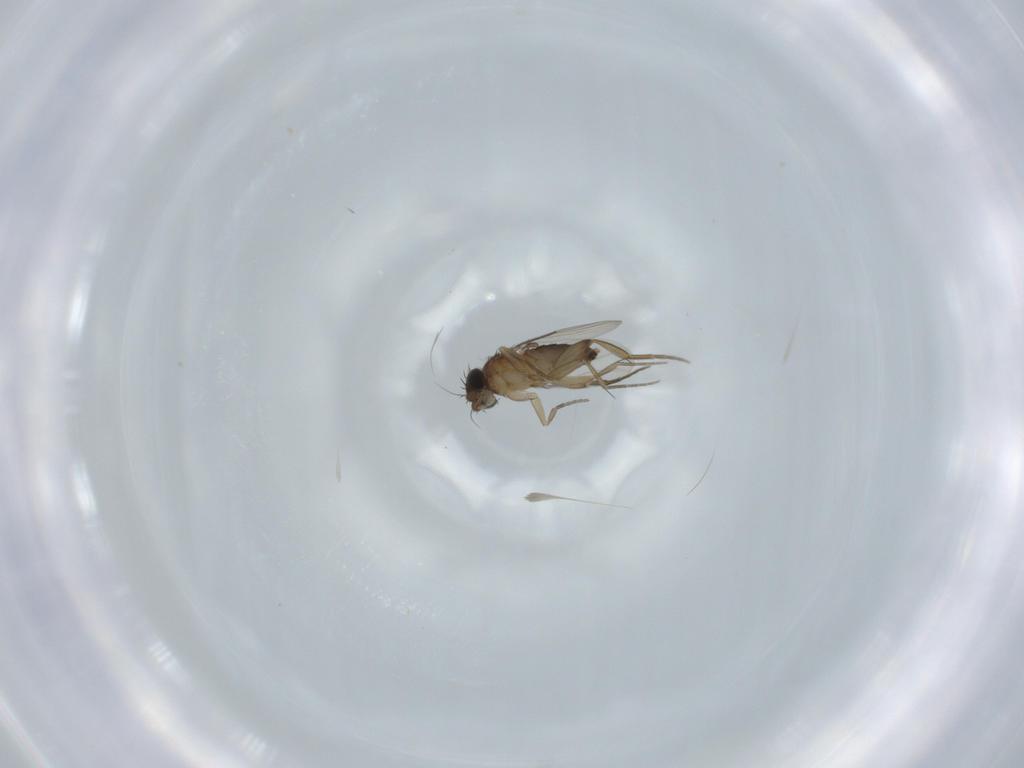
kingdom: Animalia
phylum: Arthropoda
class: Insecta
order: Diptera
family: Phoridae
